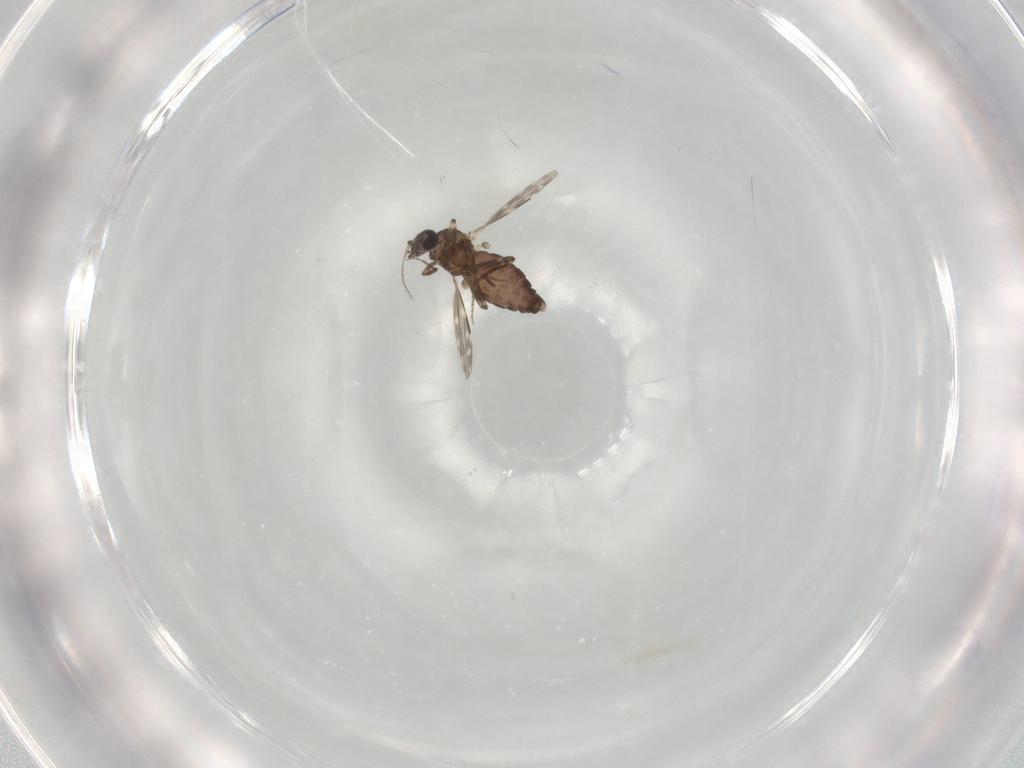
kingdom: Animalia
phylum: Arthropoda
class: Insecta
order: Diptera
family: Ceratopogonidae
